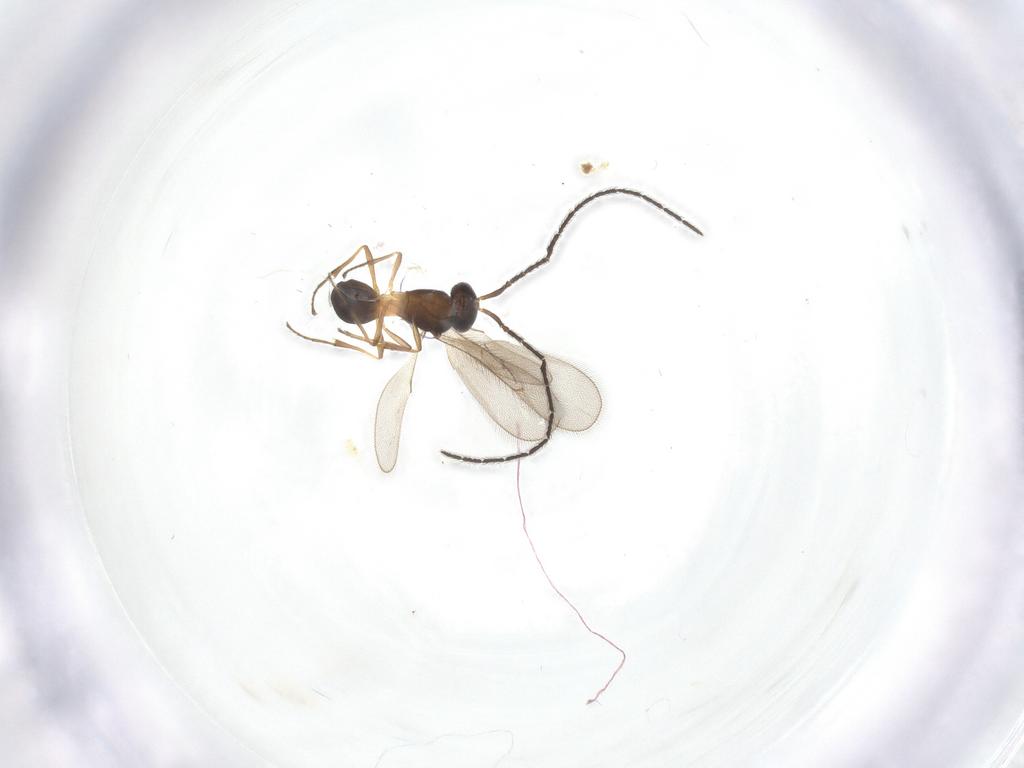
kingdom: Animalia
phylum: Arthropoda
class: Insecta
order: Hymenoptera
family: Scelionidae
